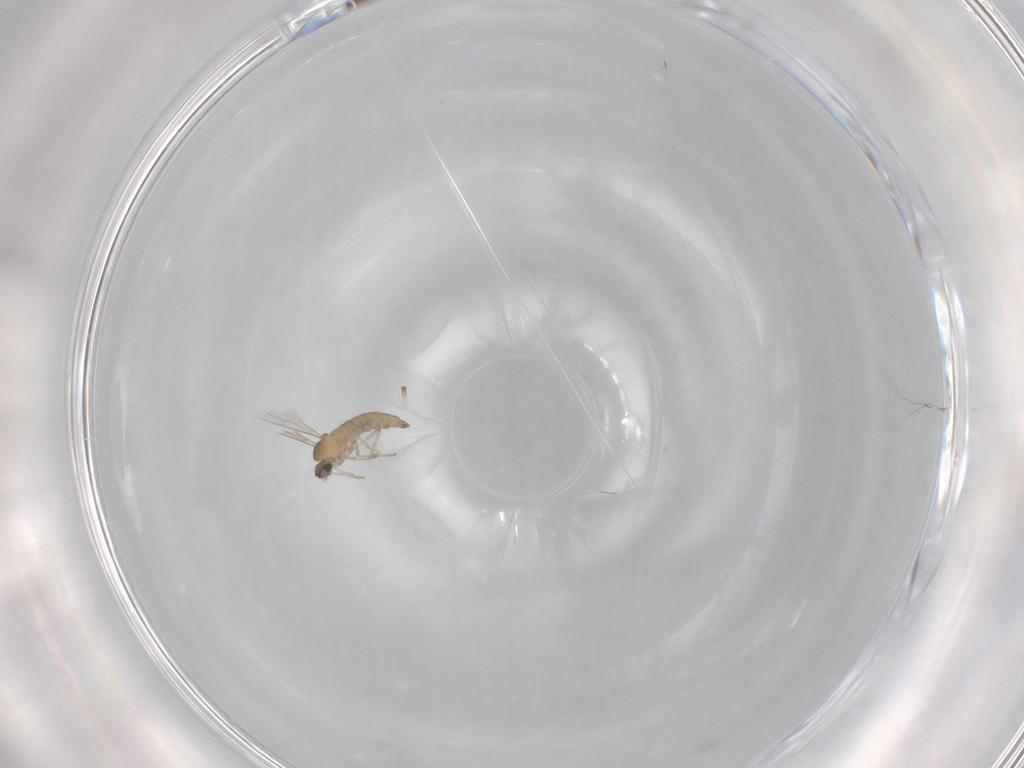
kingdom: Animalia
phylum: Arthropoda
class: Insecta
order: Diptera
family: Cecidomyiidae
